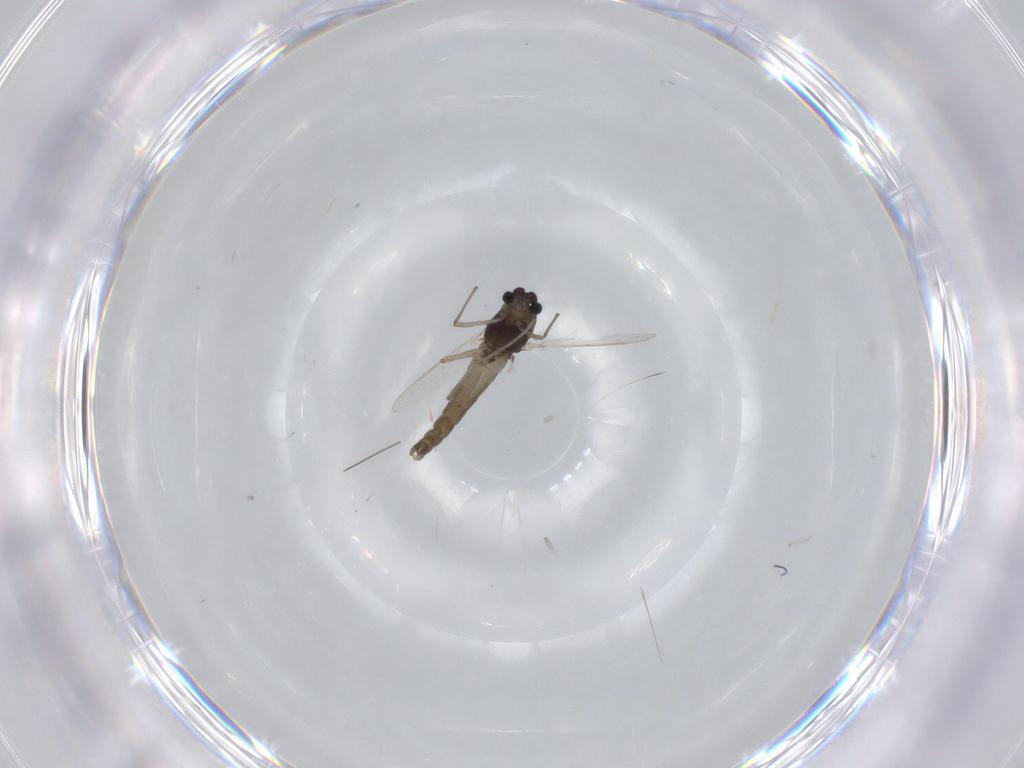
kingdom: Animalia
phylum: Arthropoda
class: Insecta
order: Diptera
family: Chironomidae
